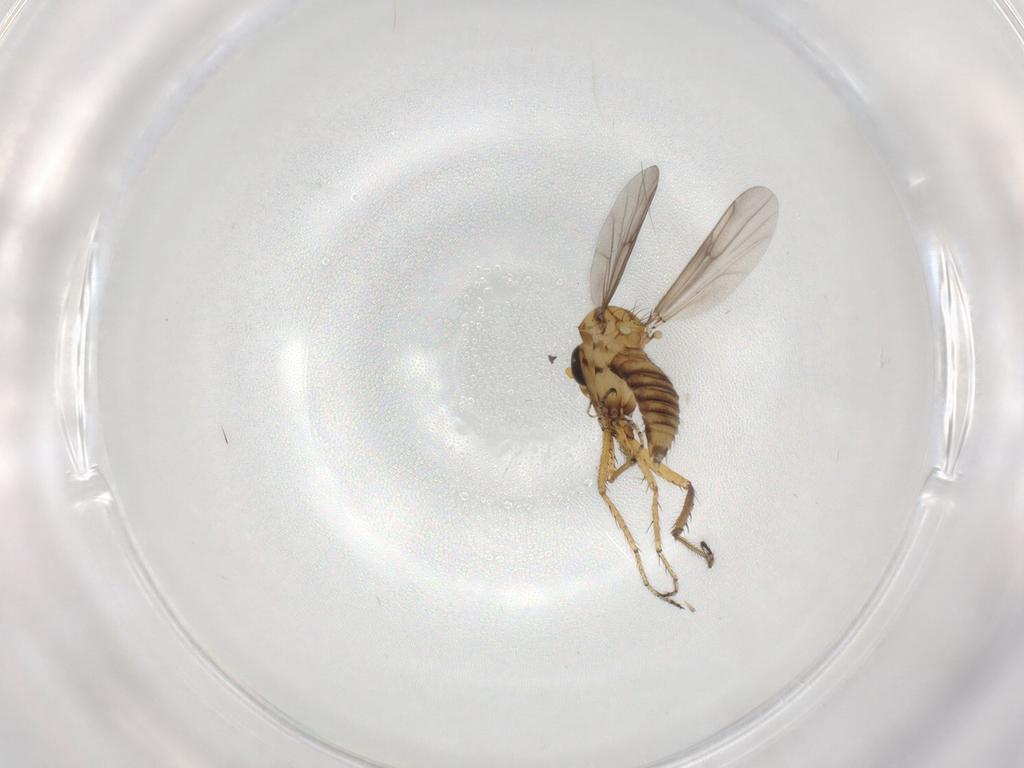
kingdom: Animalia
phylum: Arthropoda
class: Insecta
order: Diptera
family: Ceratopogonidae
